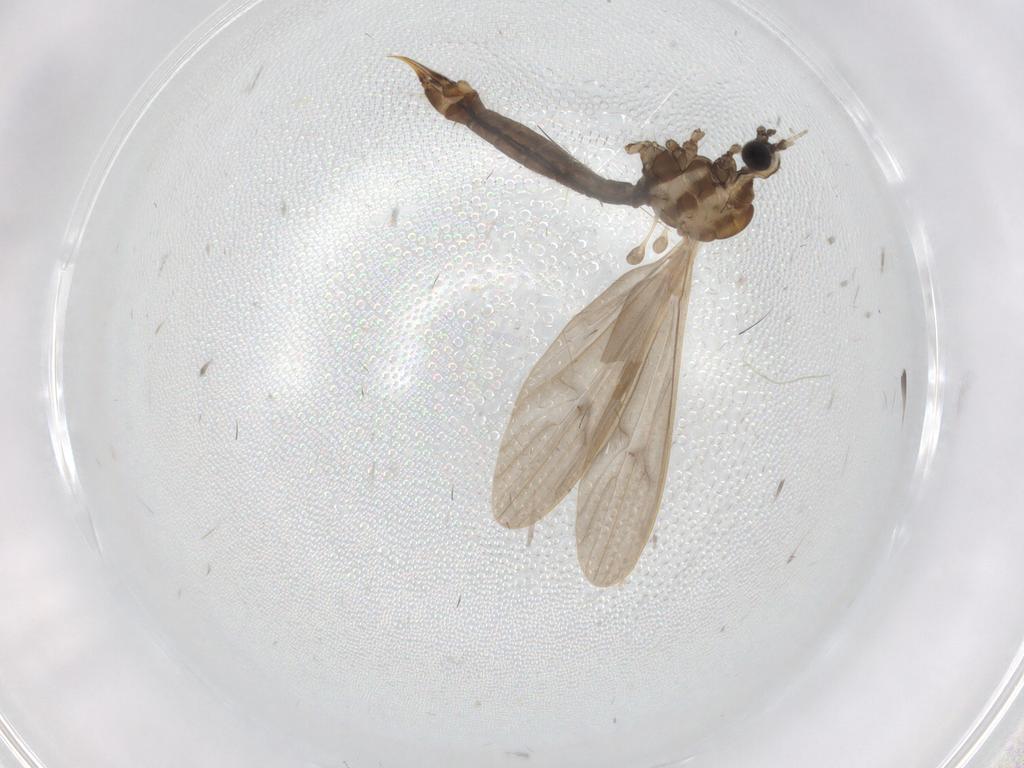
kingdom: Animalia
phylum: Arthropoda
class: Insecta
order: Diptera
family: Limoniidae
